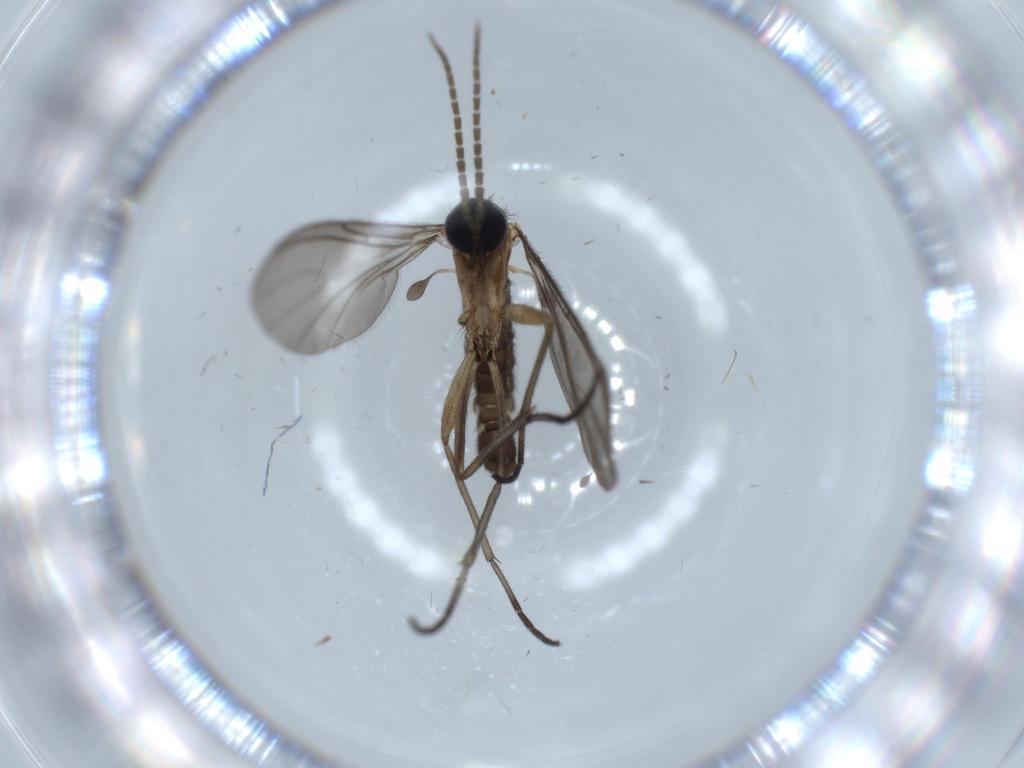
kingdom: Animalia
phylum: Arthropoda
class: Insecta
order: Diptera
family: Sciaridae
